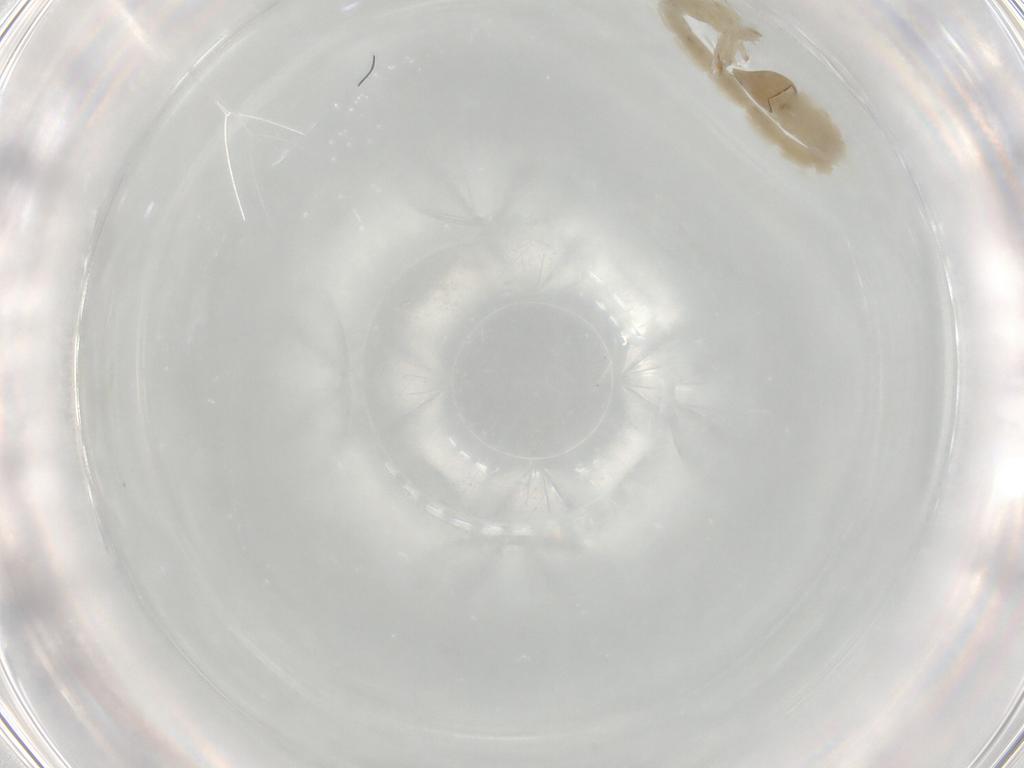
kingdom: Animalia
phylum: Arthropoda
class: Insecta
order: Diptera
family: Chironomidae
